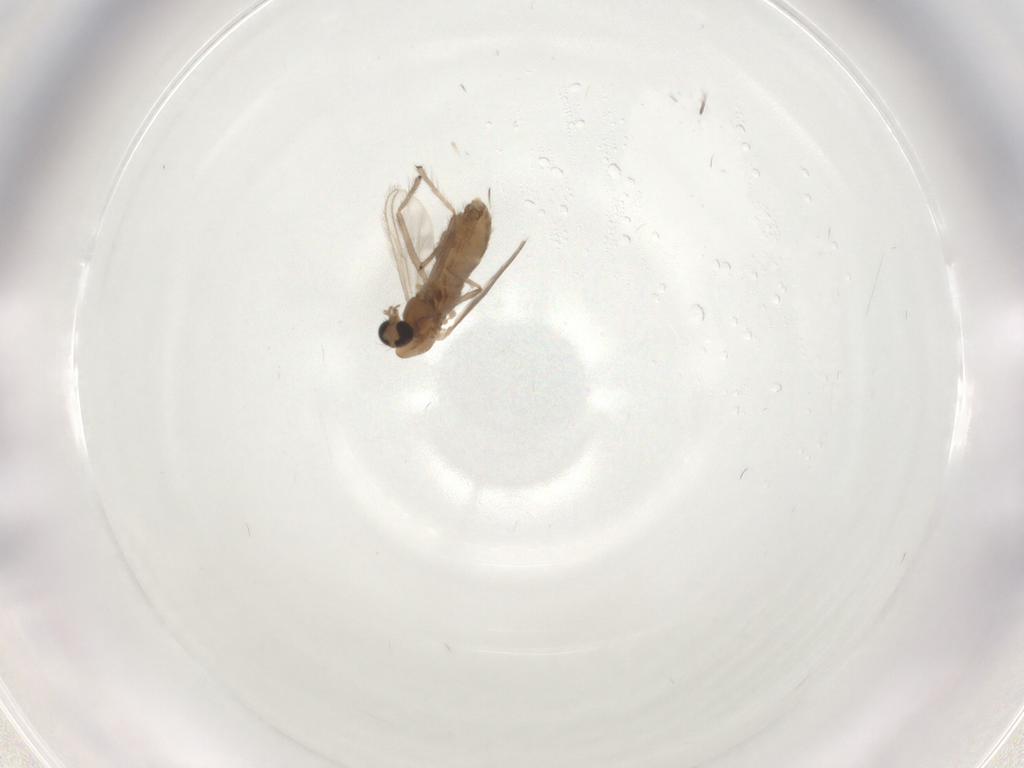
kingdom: Animalia
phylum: Arthropoda
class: Insecta
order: Diptera
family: Chironomidae
